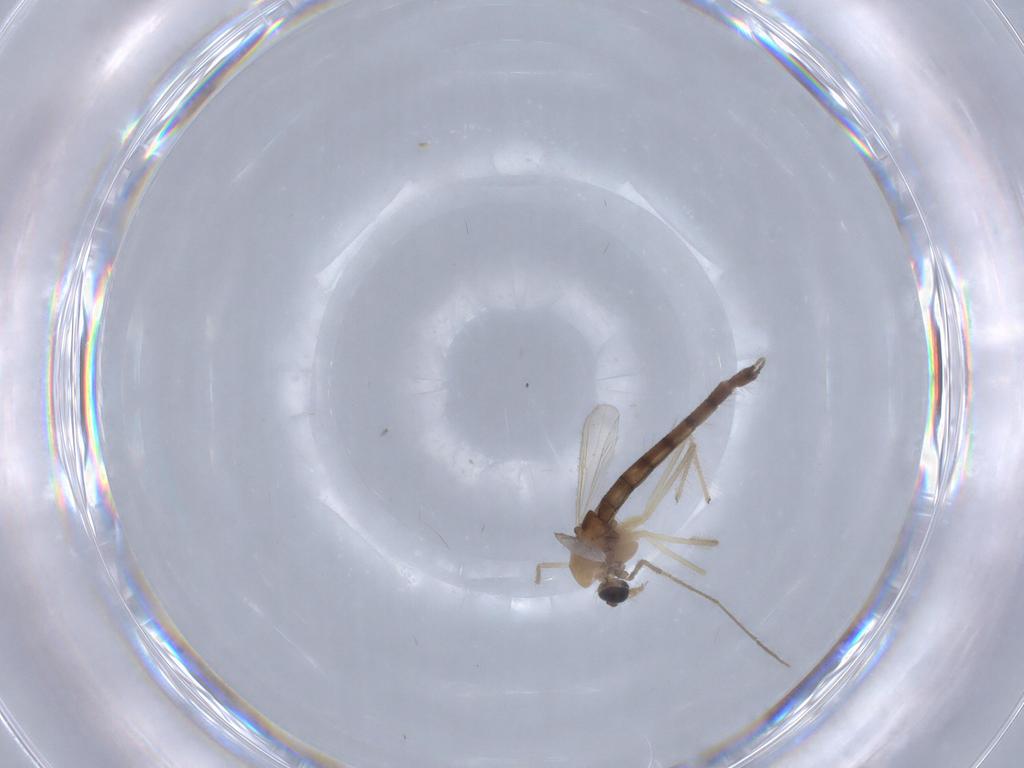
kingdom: Animalia
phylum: Arthropoda
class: Insecta
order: Diptera
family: Chironomidae
